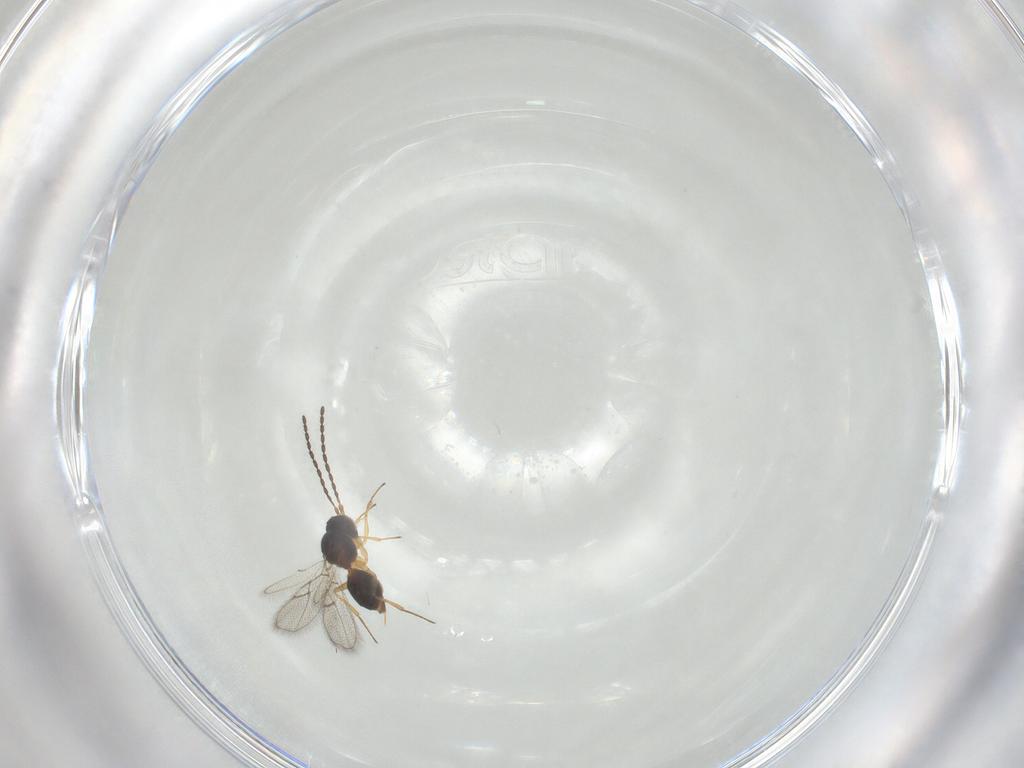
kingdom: Animalia
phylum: Arthropoda
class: Insecta
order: Hymenoptera
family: Figitidae
